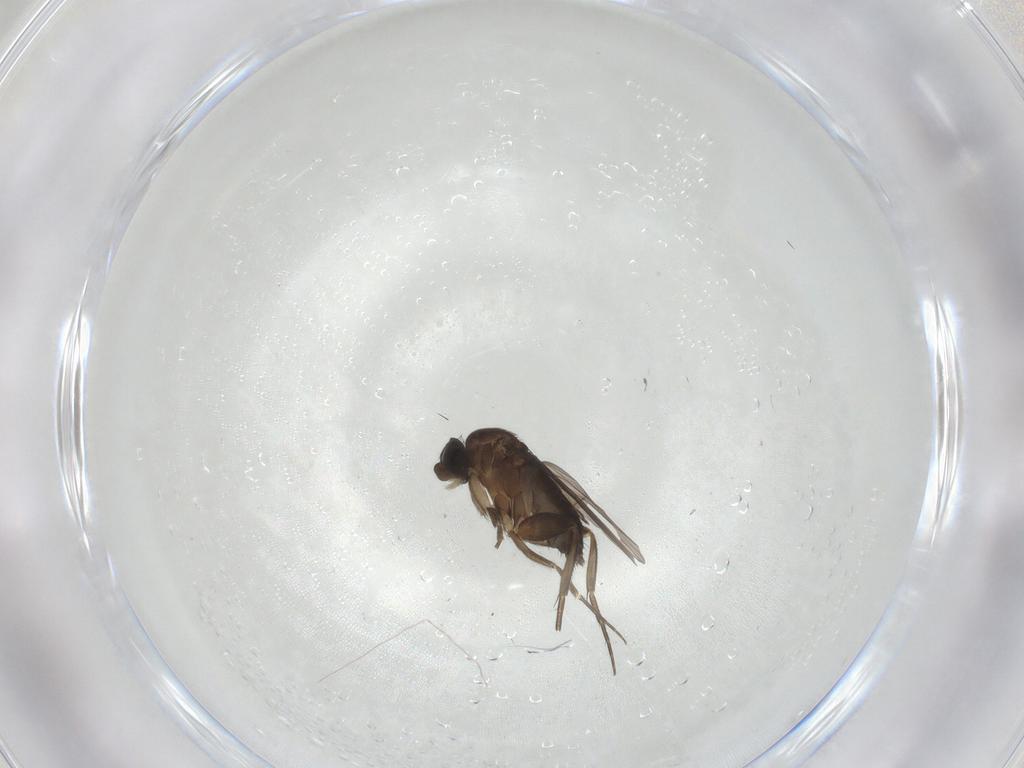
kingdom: Animalia
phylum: Arthropoda
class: Insecta
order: Diptera
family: Phoridae
